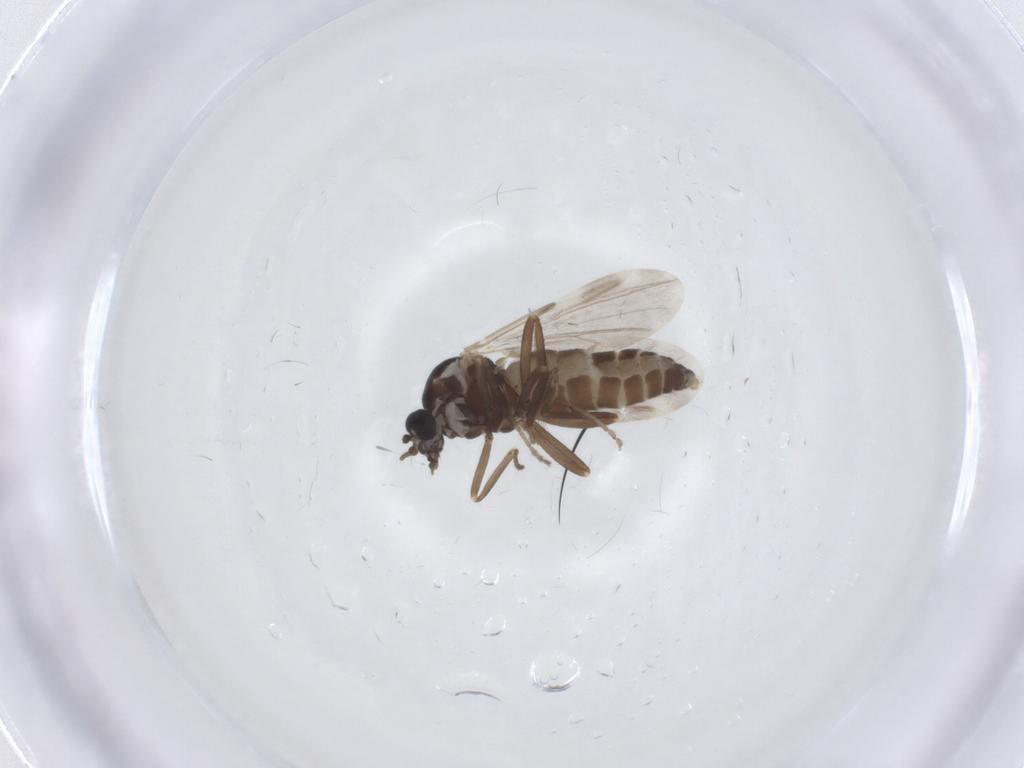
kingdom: Animalia
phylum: Arthropoda
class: Insecta
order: Diptera
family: Ceratopogonidae
